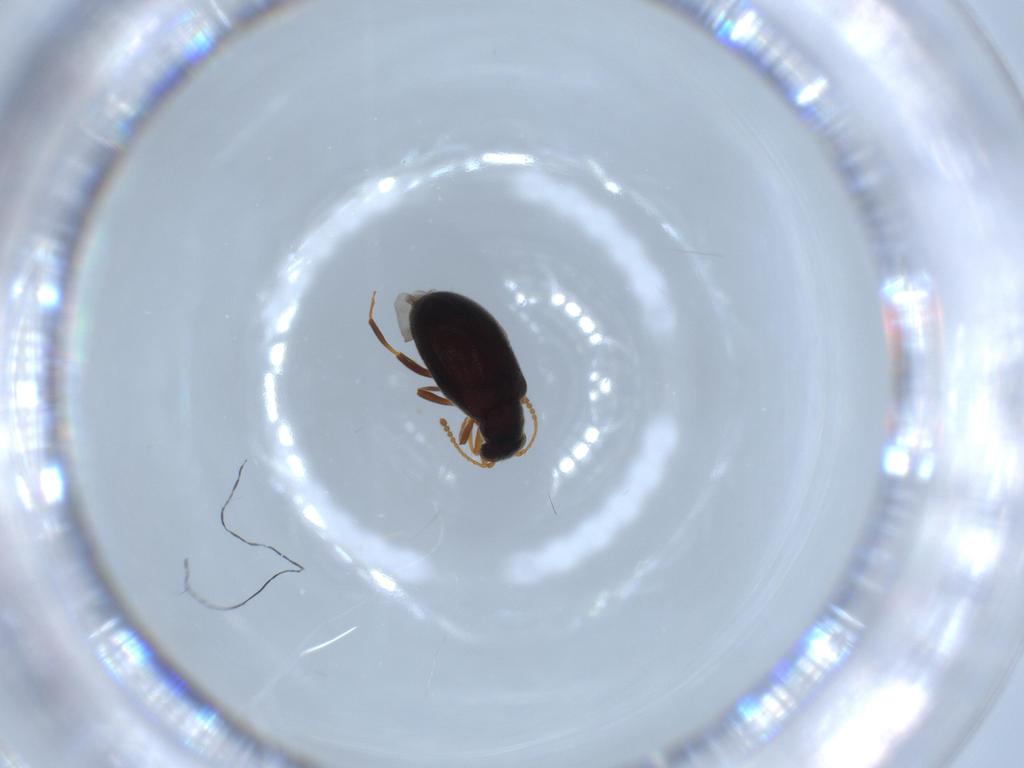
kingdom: Animalia
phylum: Arthropoda
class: Insecta
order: Coleoptera
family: Aderidae
